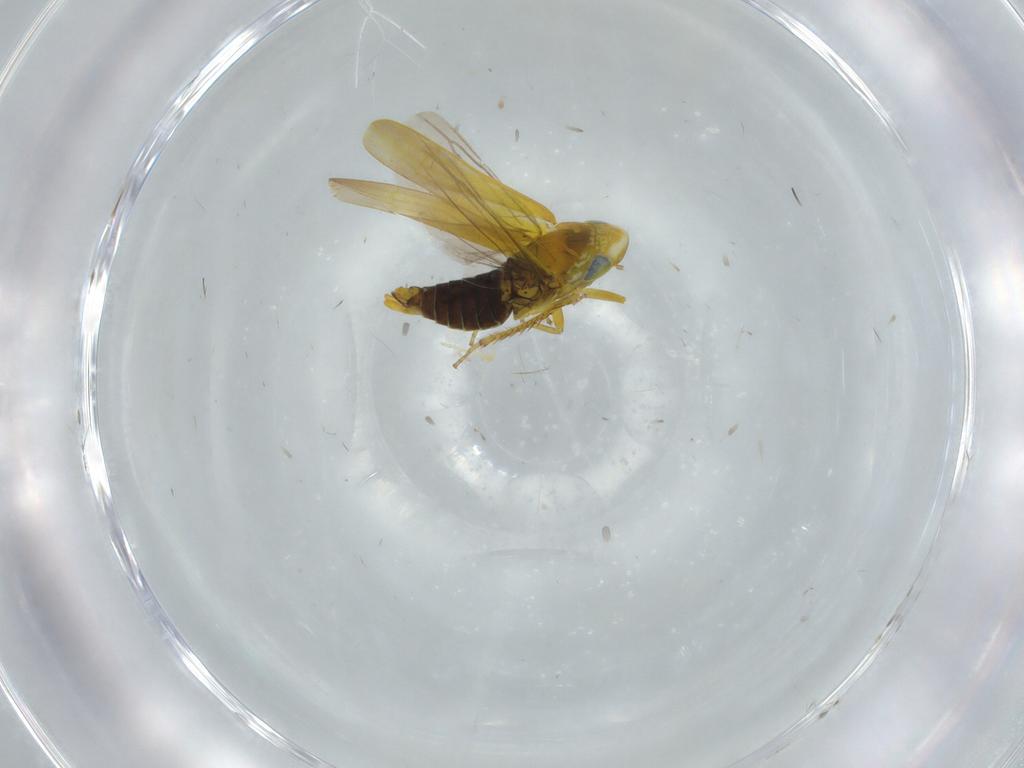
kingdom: Animalia
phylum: Arthropoda
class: Insecta
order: Hemiptera
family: Cicadellidae
